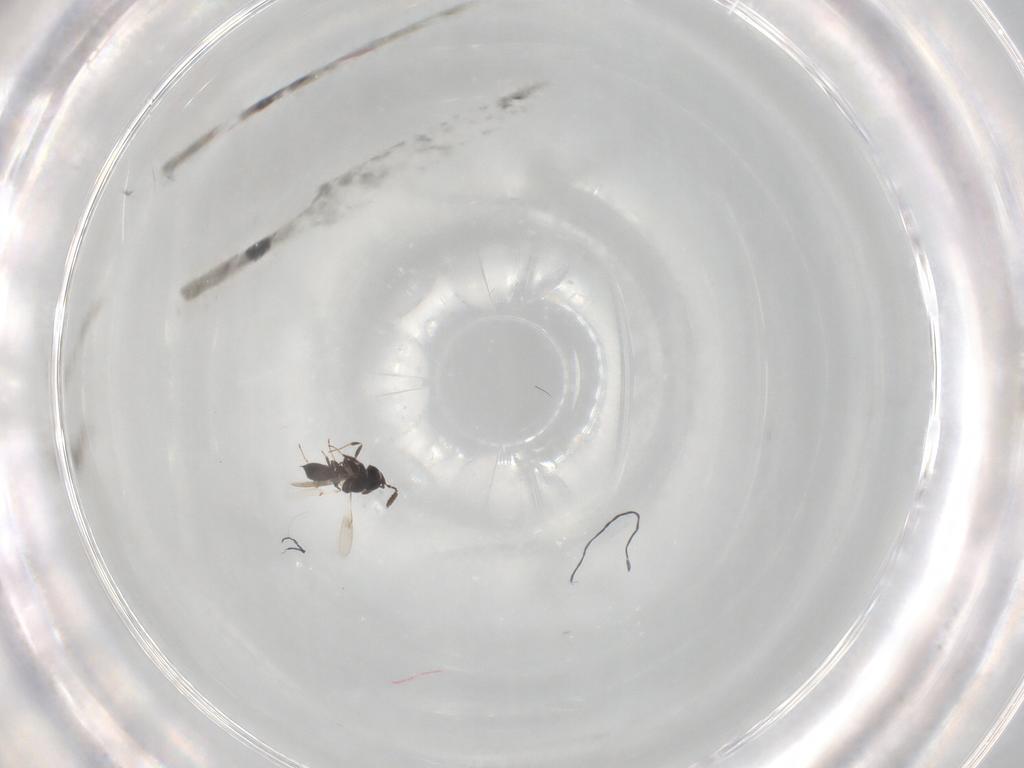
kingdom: Animalia
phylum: Arthropoda
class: Insecta
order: Hymenoptera
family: Scelionidae
